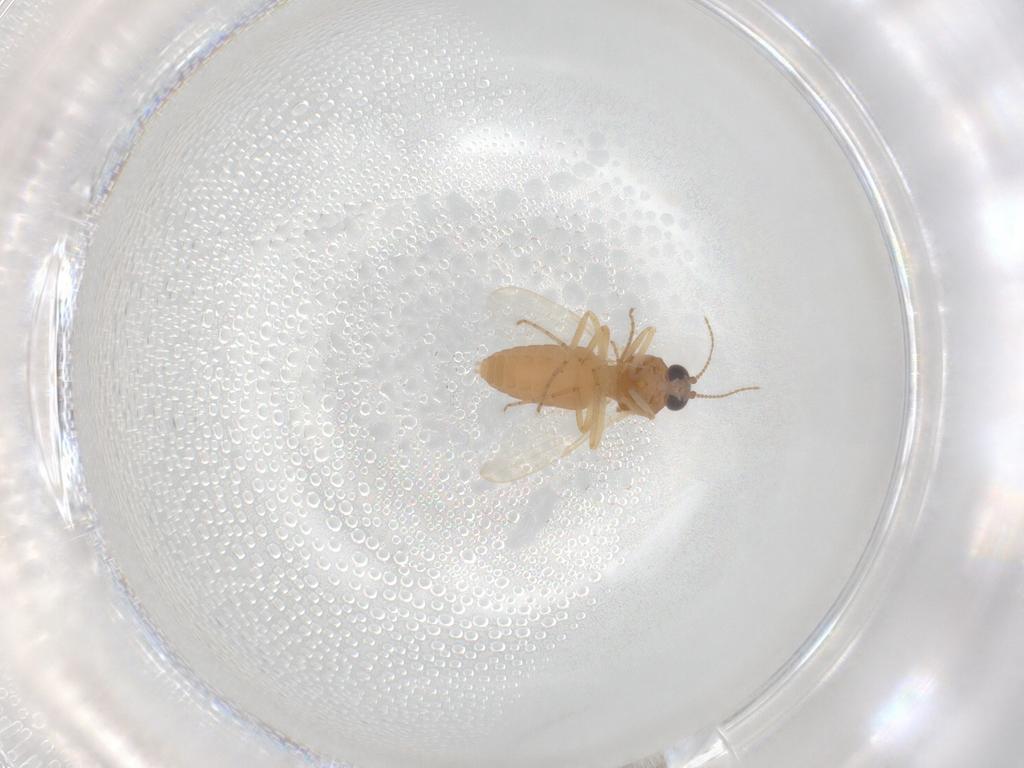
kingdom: Animalia
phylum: Arthropoda
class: Insecta
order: Diptera
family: Ceratopogonidae
